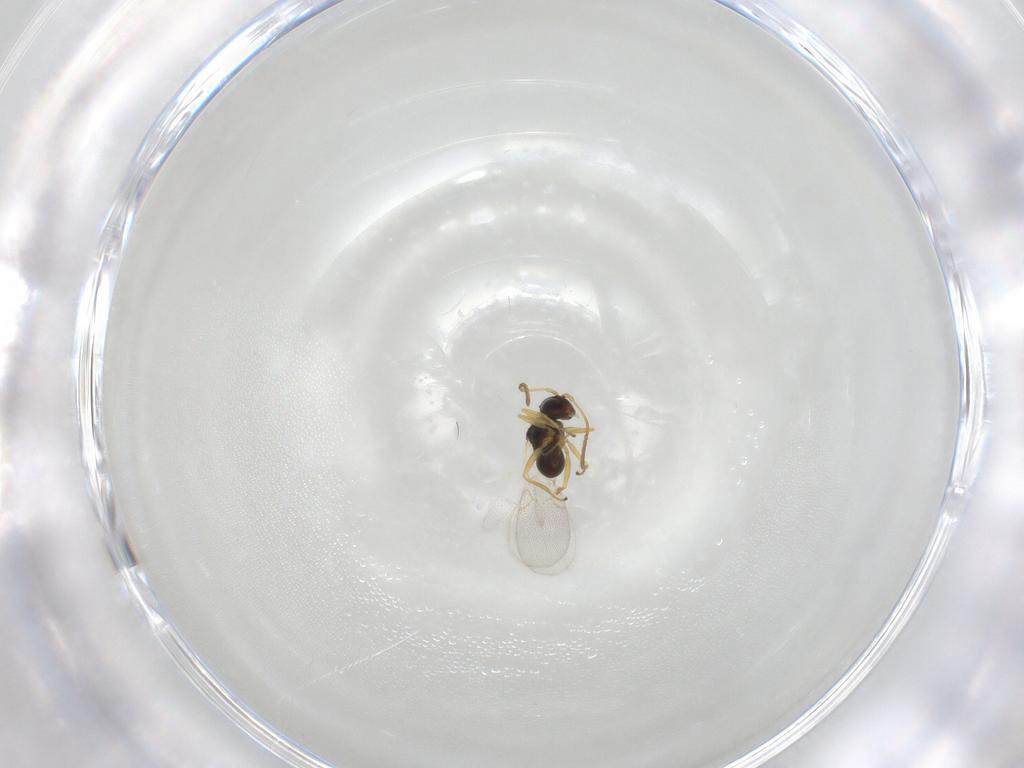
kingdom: Animalia
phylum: Arthropoda
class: Insecta
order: Hymenoptera
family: Figitidae
